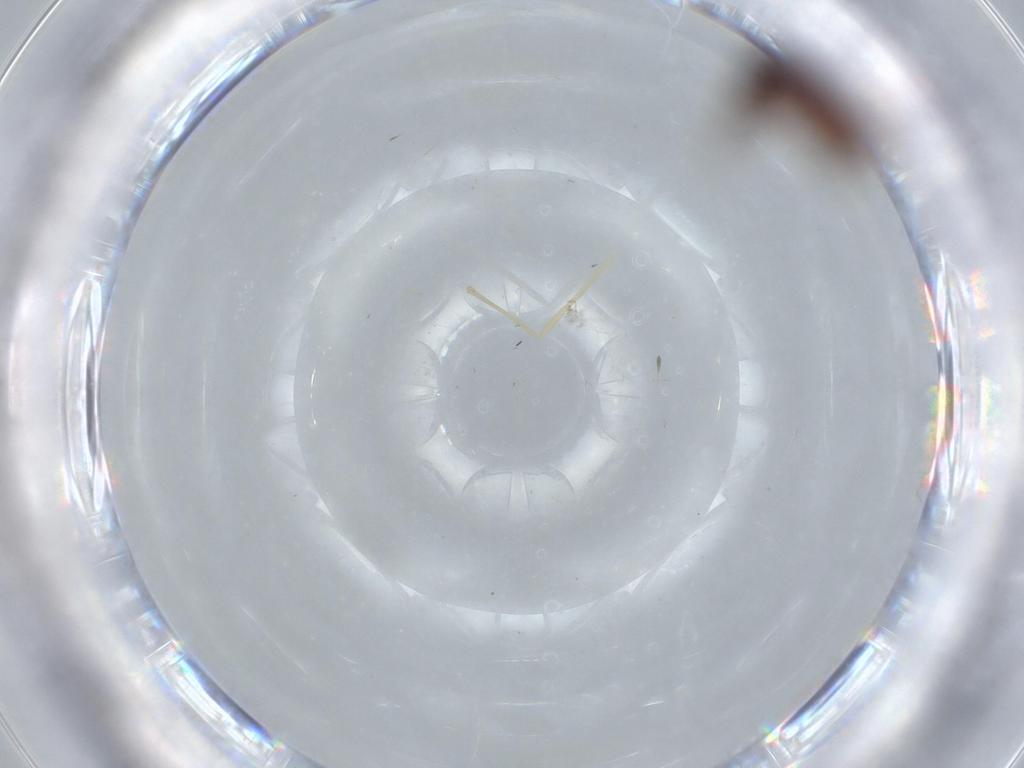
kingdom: Animalia
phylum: Arthropoda
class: Insecta
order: Diptera
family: Chironomidae
